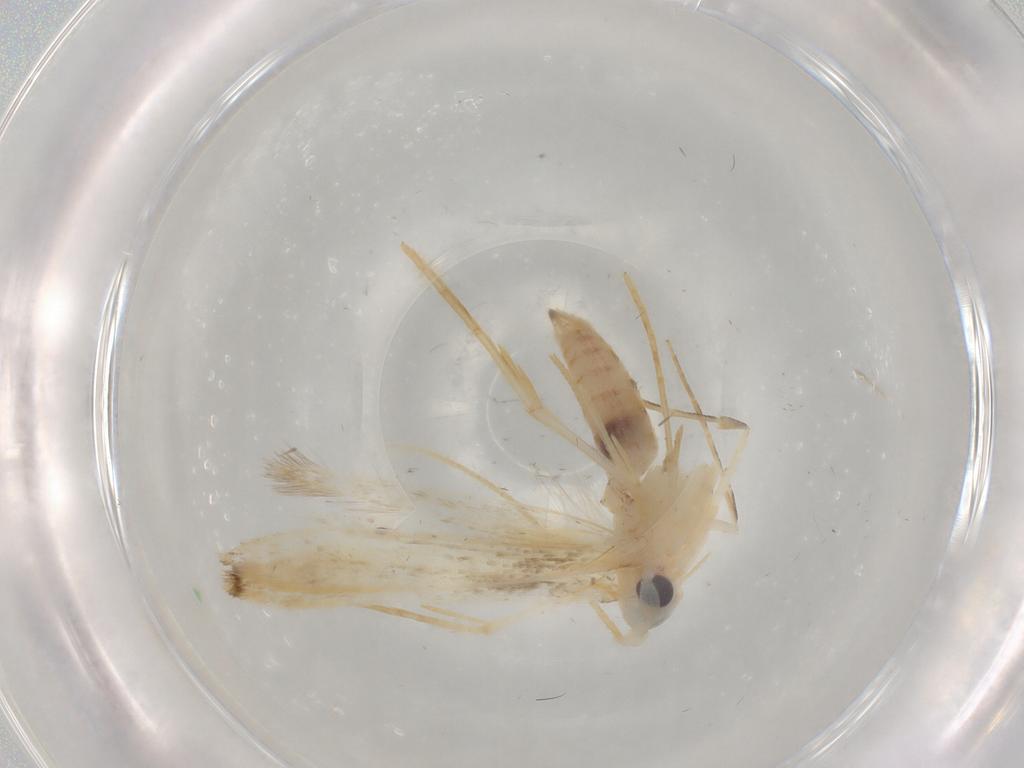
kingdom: Animalia
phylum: Arthropoda
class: Insecta
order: Lepidoptera
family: Lyonetiidae
